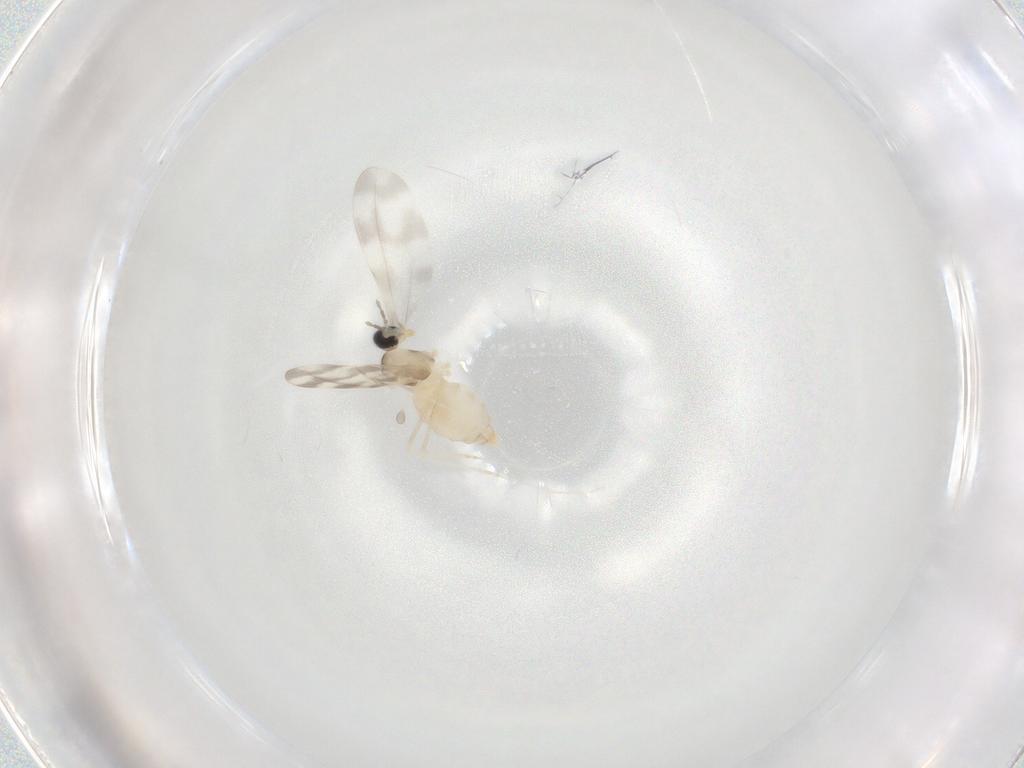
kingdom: Animalia
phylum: Arthropoda
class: Insecta
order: Diptera
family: Cecidomyiidae
